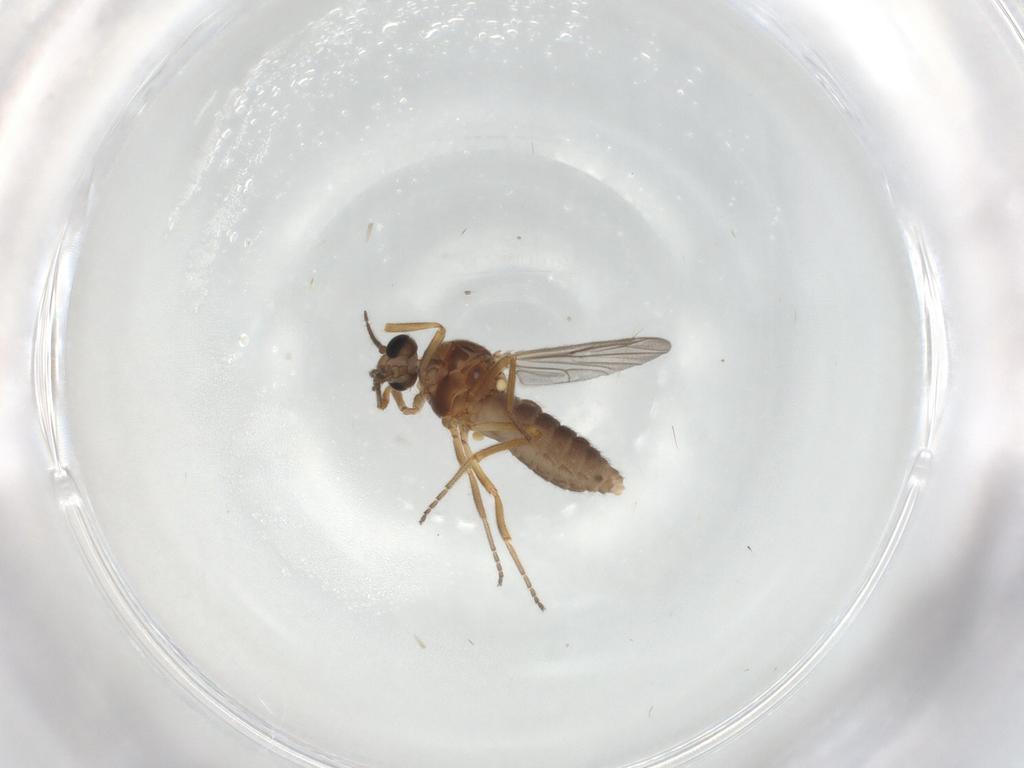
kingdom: Animalia
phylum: Arthropoda
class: Insecta
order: Diptera
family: Ceratopogonidae
